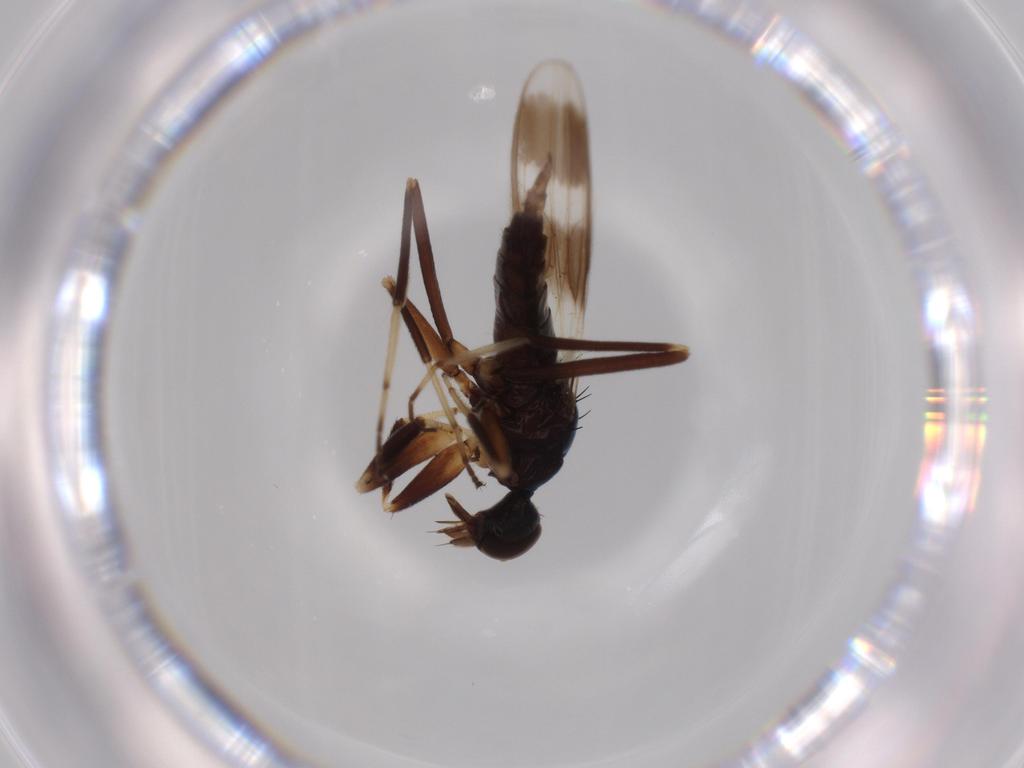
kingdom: Animalia
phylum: Arthropoda
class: Insecta
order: Diptera
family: Hybotidae
